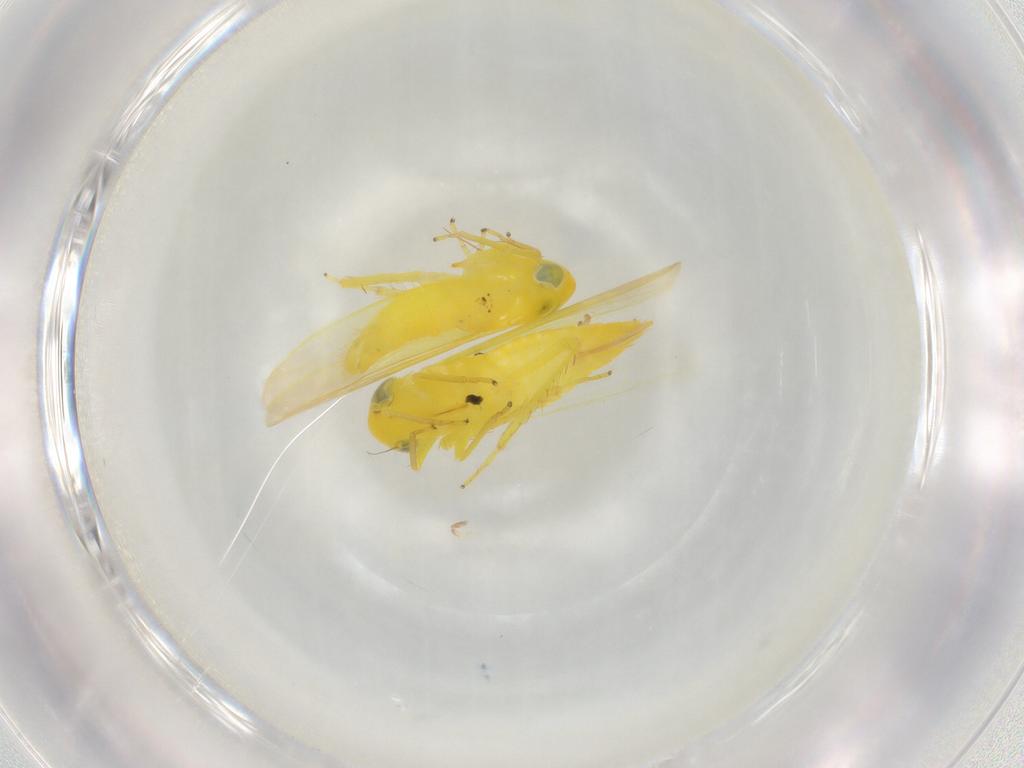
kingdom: Animalia
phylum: Arthropoda
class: Insecta
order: Hemiptera
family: Cicadellidae
